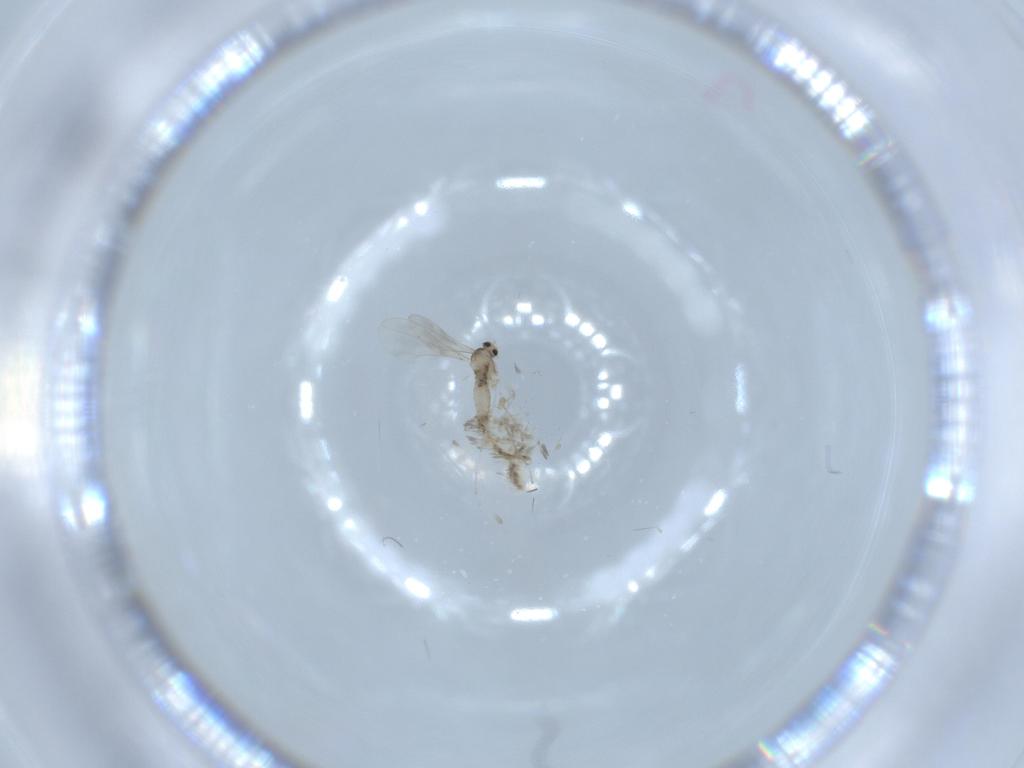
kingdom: Animalia
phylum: Arthropoda
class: Insecta
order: Diptera
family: Cecidomyiidae
